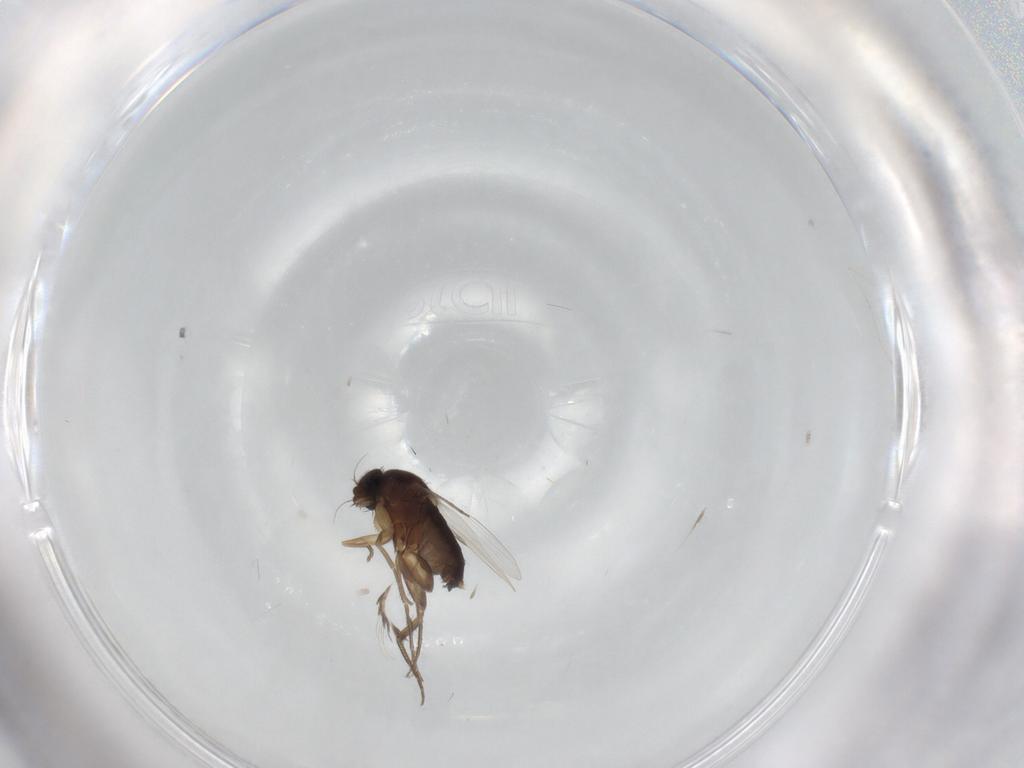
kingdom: Animalia
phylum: Arthropoda
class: Insecta
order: Diptera
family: Phoridae
